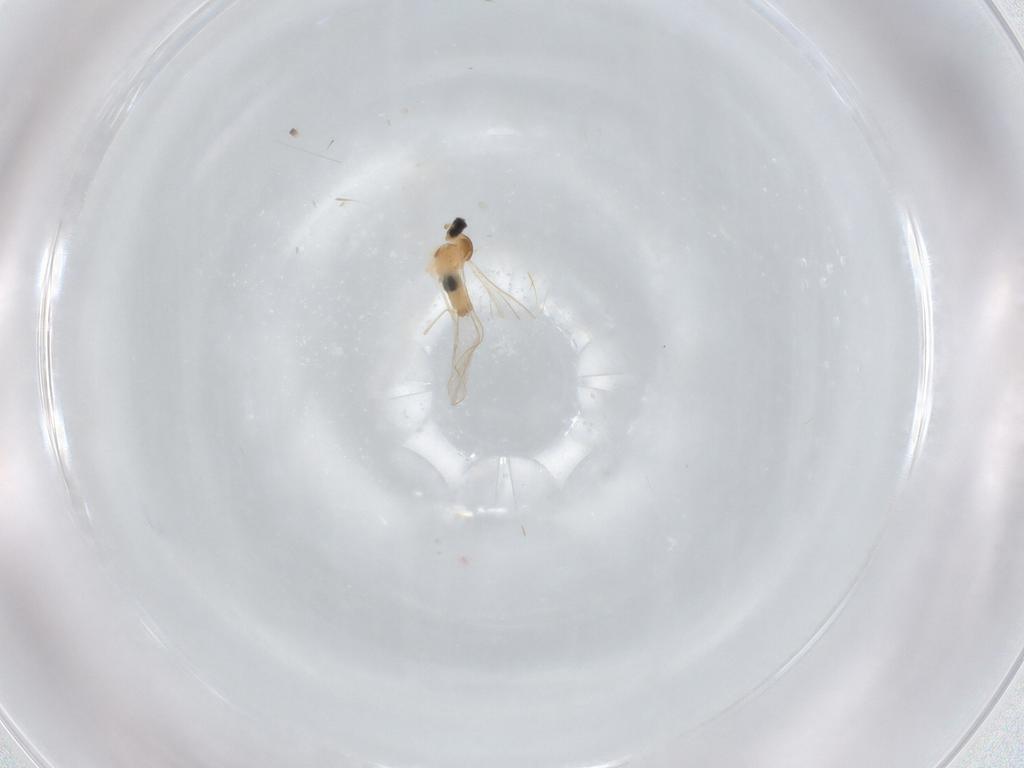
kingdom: Animalia
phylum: Arthropoda
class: Insecta
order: Diptera
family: Cecidomyiidae
